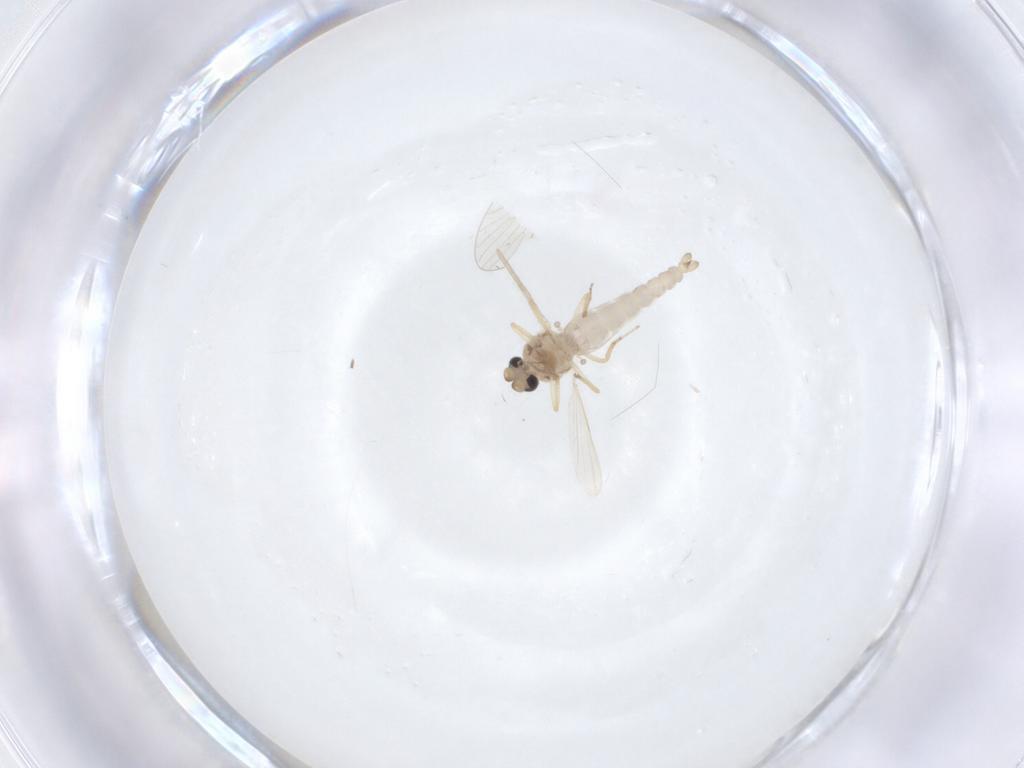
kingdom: Animalia
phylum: Arthropoda
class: Insecta
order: Diptera
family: Ceratopogonidae
